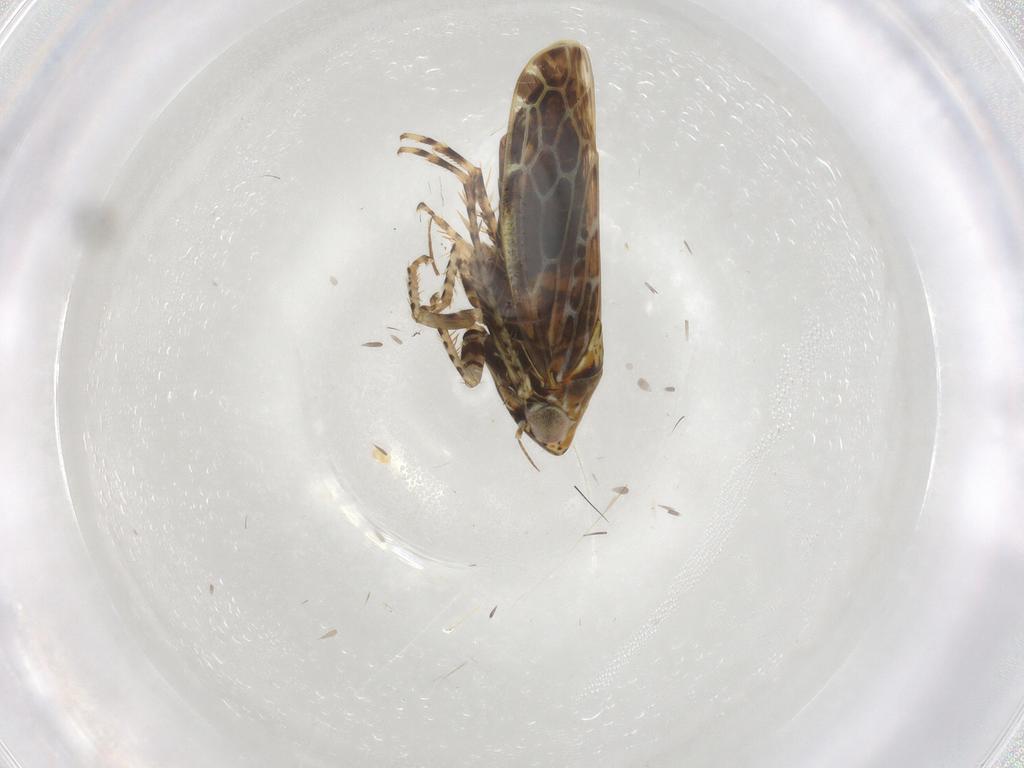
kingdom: Animalia
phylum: Arthropoda
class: Insecta
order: Hemiptera
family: Cicadellidae
